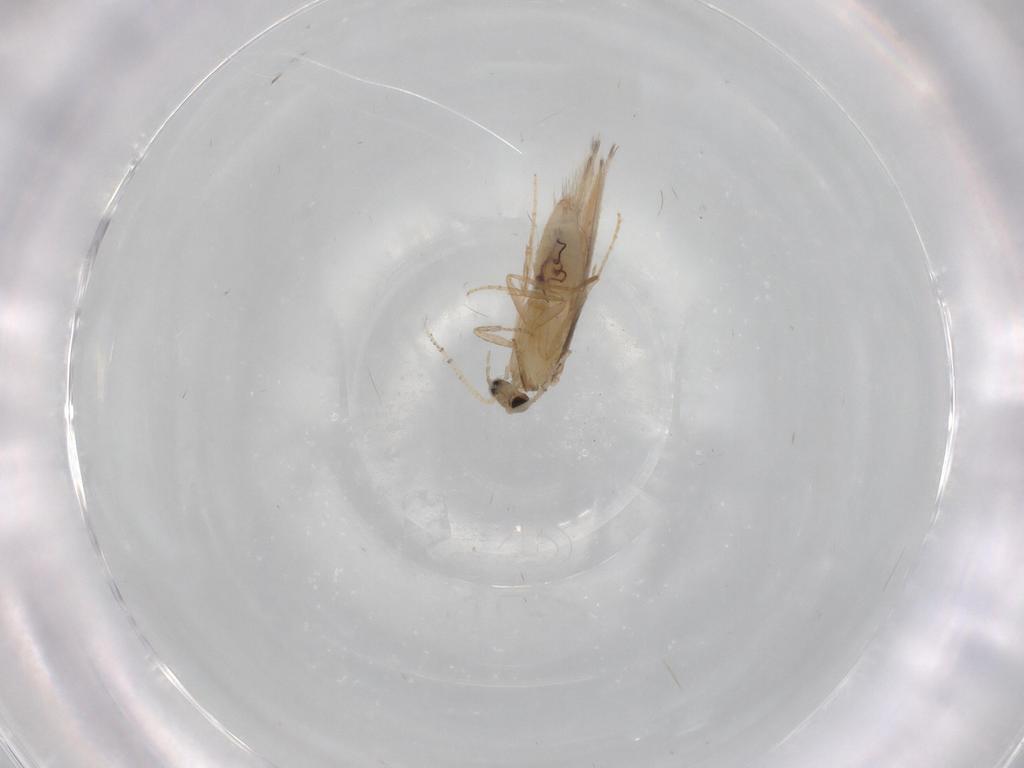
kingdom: Animalia
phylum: Arthropoda
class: Insecta
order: Trichoptera
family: Hydroptilidae
